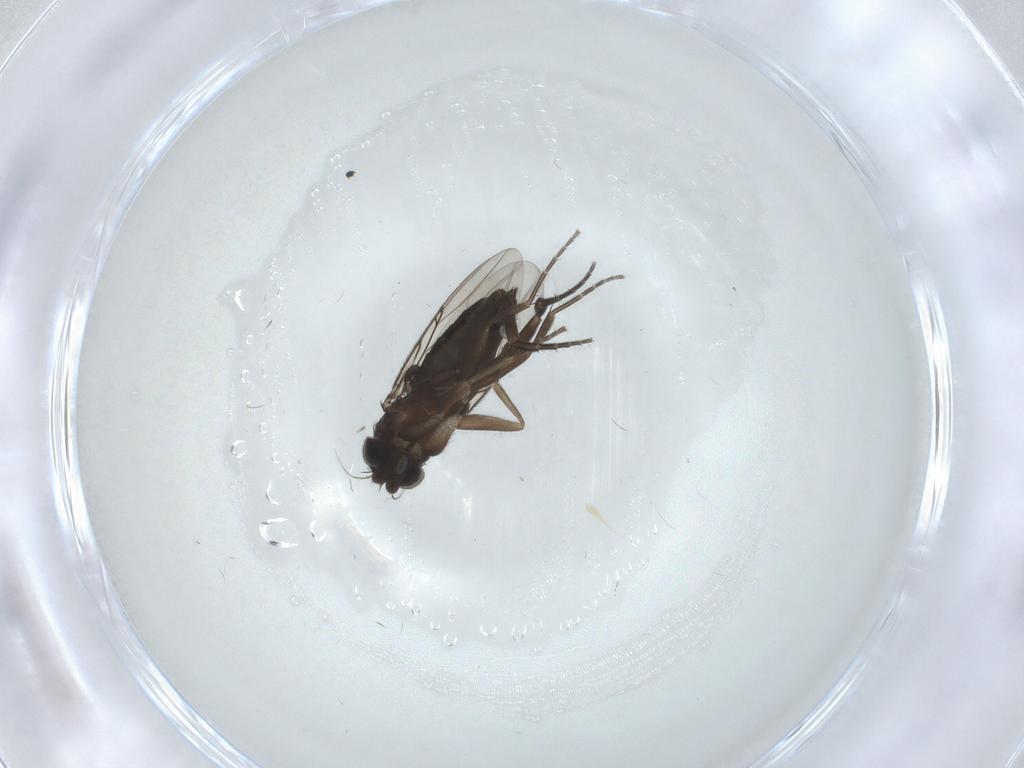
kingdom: Animalia
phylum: Arthropoda
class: Insecta
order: Diptera
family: Phoridae
